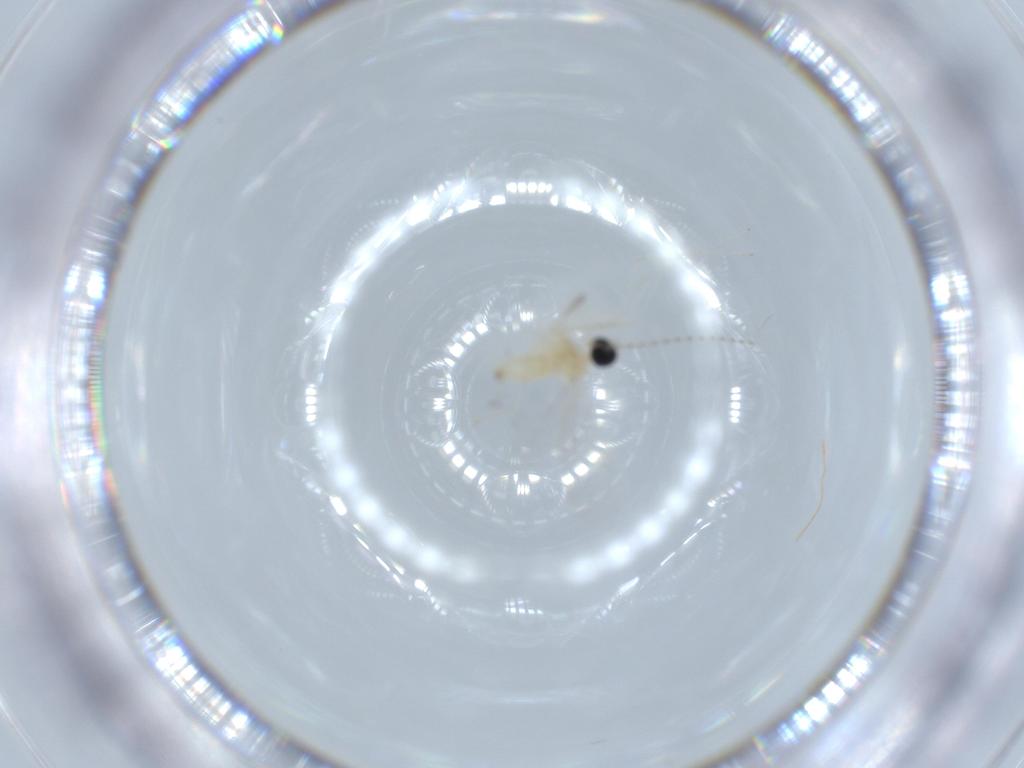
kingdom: Animalia
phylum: Arthropoda
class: Insecta
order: Diptera
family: Cecidomyiidae
